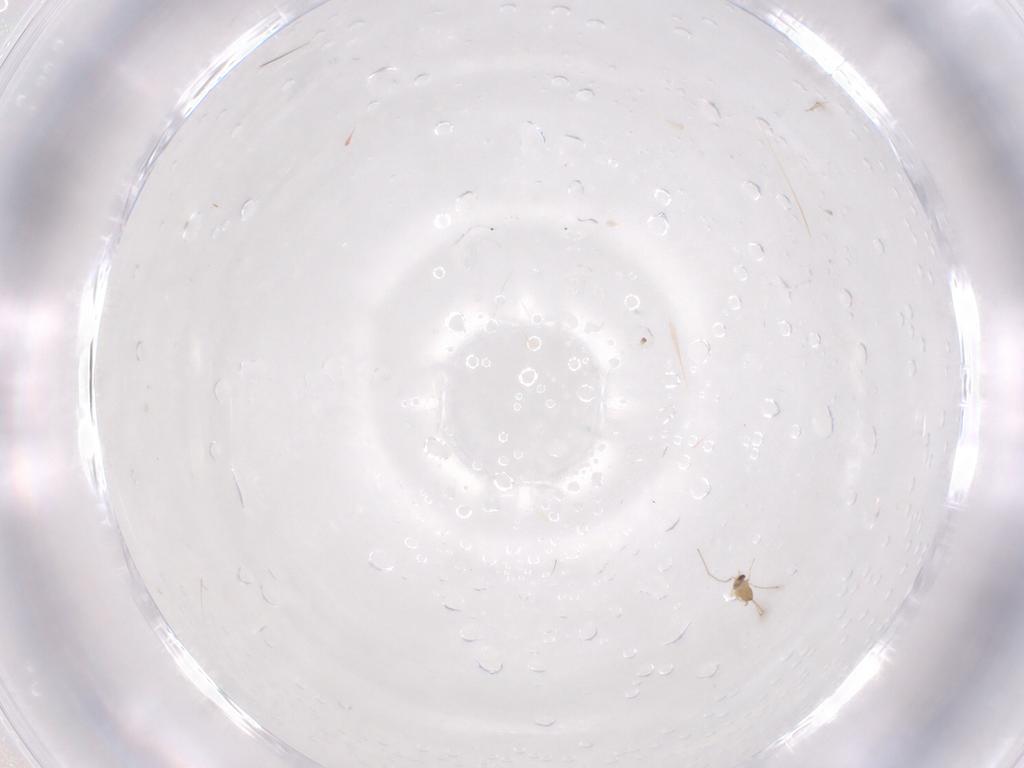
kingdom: Animalia
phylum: Arthropoda
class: Insecta
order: Hymenoptera
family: Mymaridae
